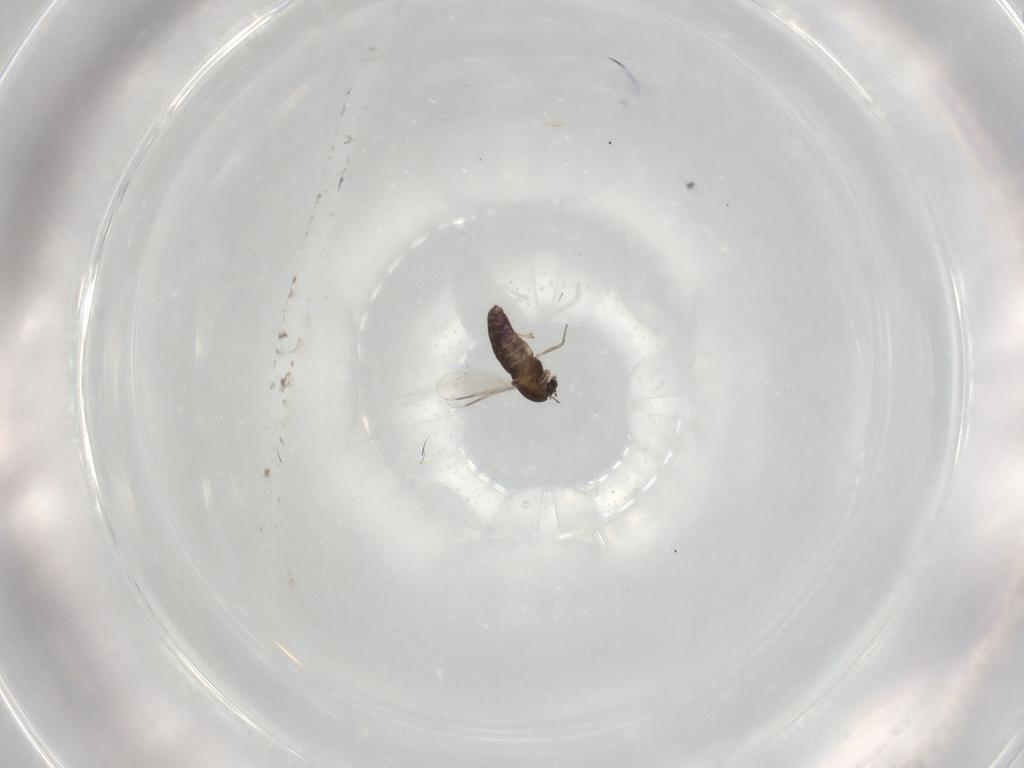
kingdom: Animalia
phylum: Arthropoda
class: Insecta
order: Diptera
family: Chironomidae
